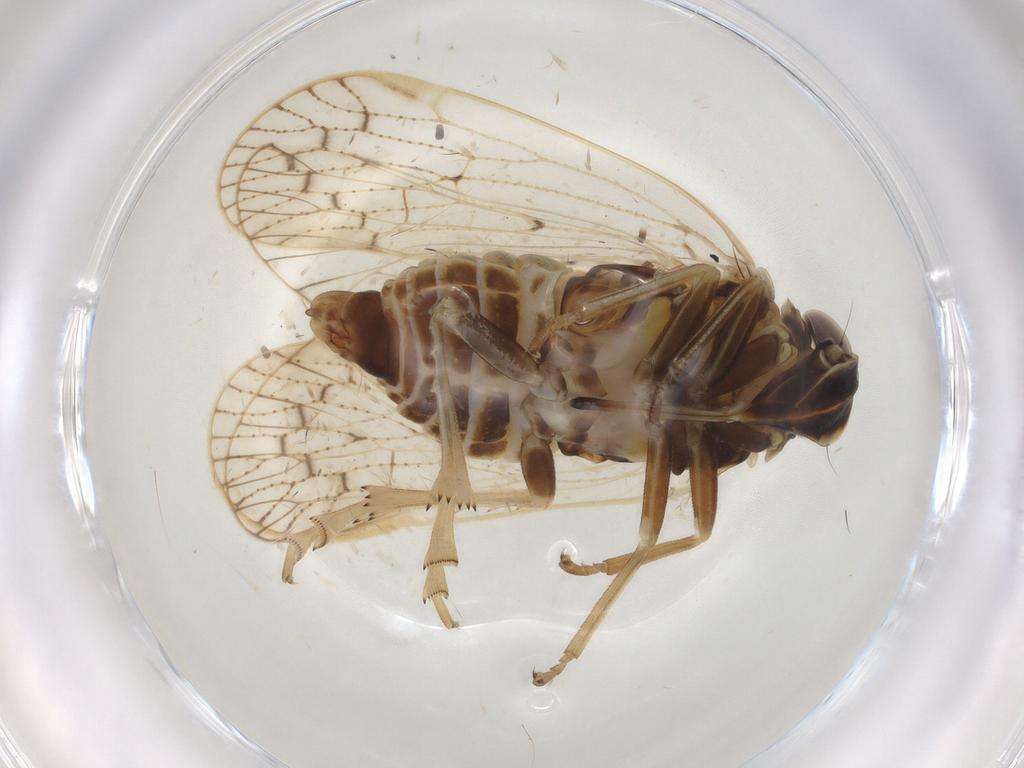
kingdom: Animalia
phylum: Arthropoda
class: Insecta
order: Hemiptera
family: Cixiidae
